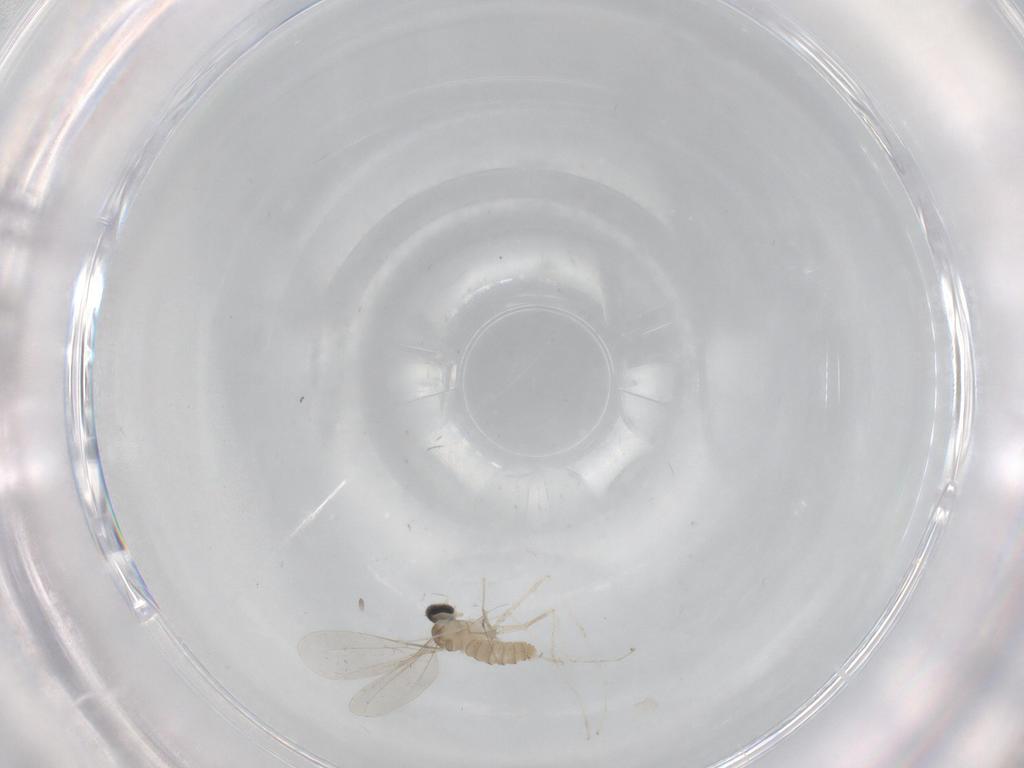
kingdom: Animalia
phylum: Arthropoda
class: Insecta
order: Diptera
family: Cecidomyiidae
